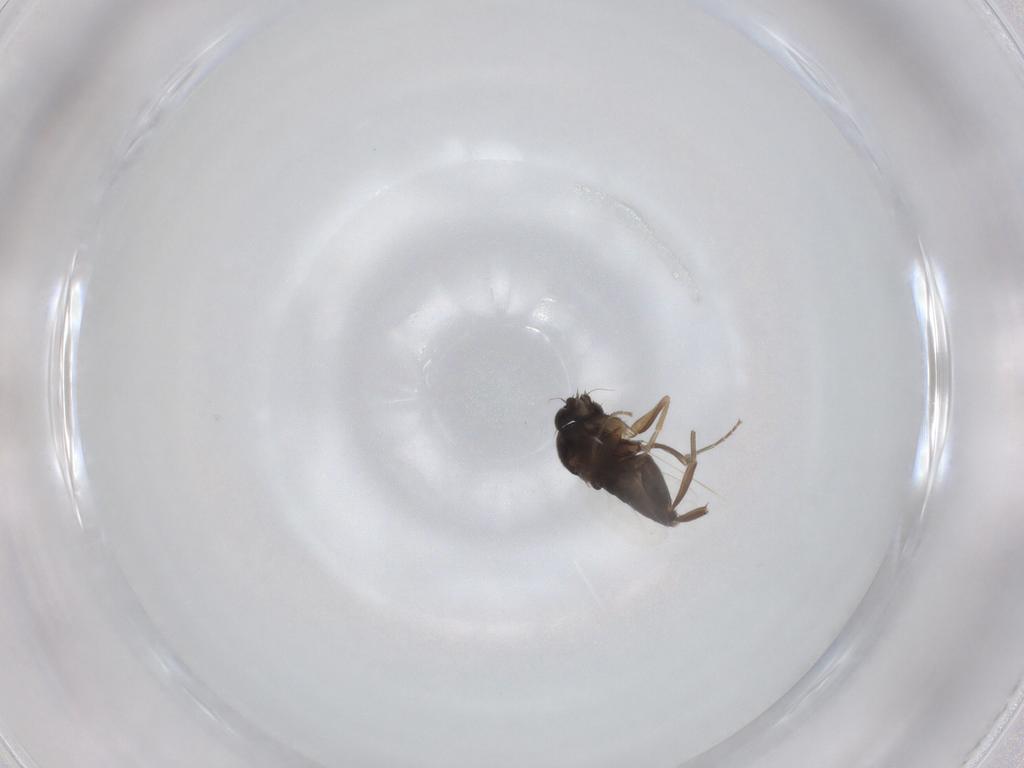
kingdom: Animalia
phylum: Arthropoda
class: Insecta
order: Diptera
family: Phoridae
